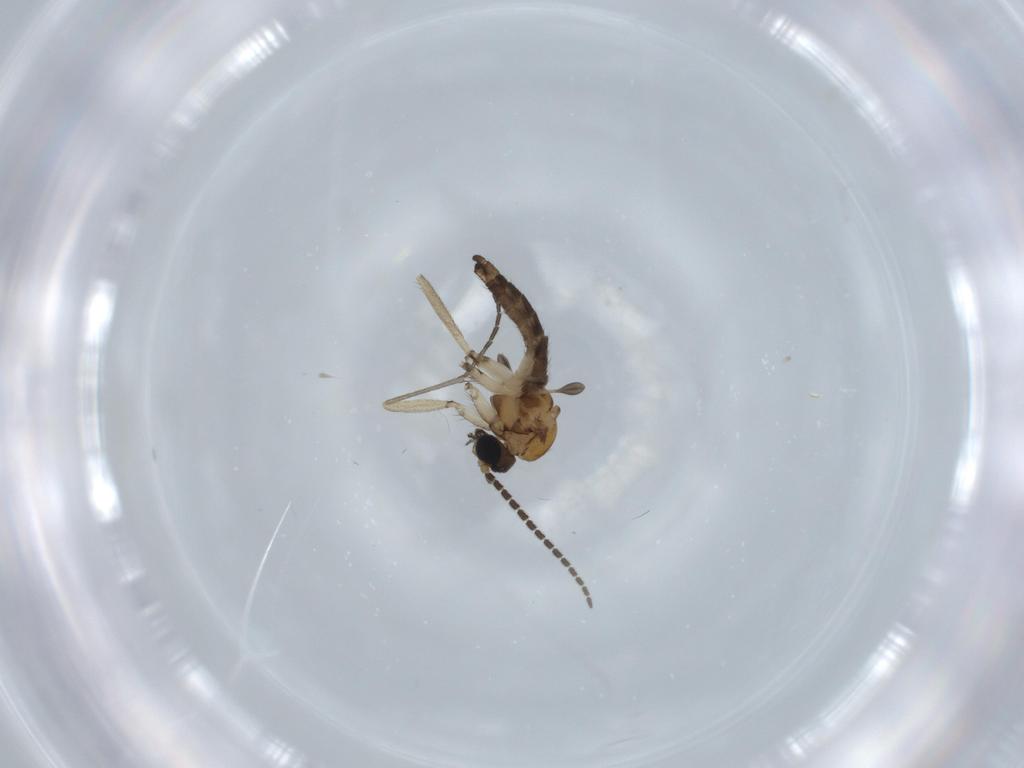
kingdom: Animalia
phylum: Arthropoda
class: Insecta
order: Diptera
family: Sciaridae
